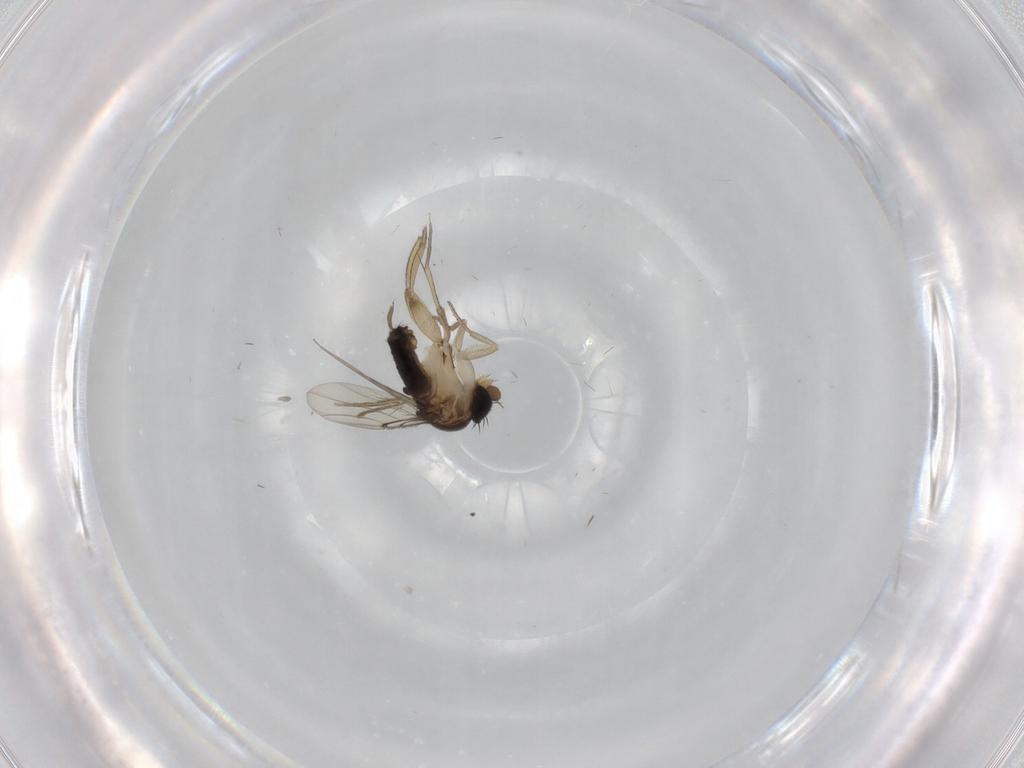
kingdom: Animalia
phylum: Arthropoda
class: Insecta
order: Diptera
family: Chironomidae
